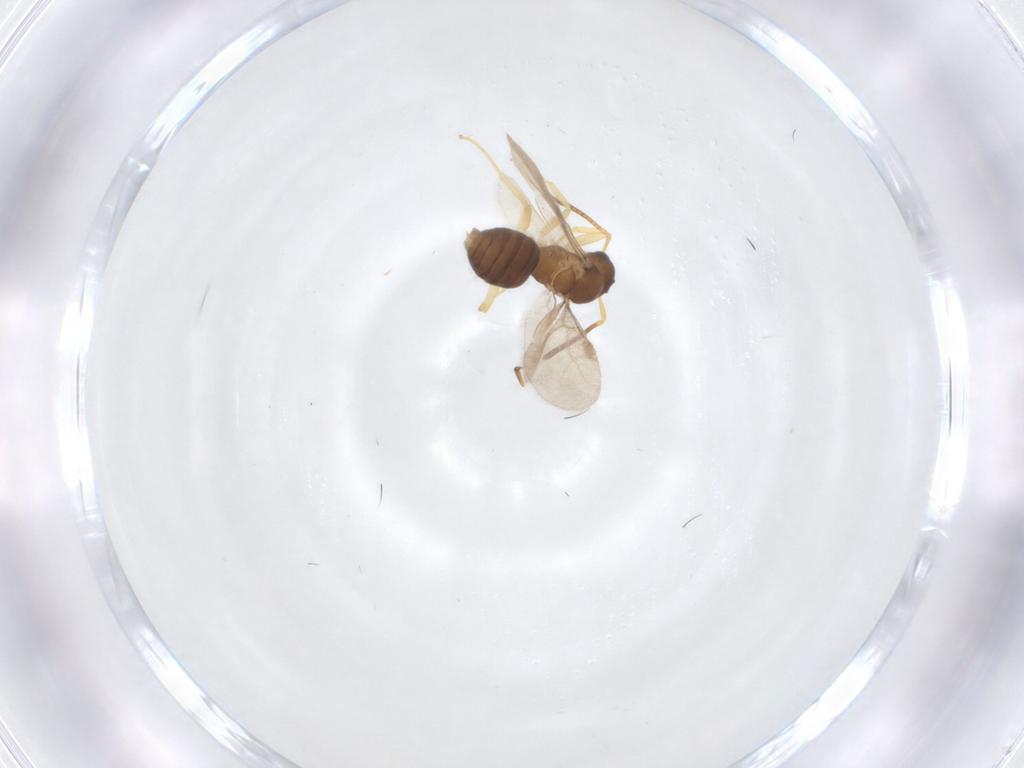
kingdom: Animalia
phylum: Arthropoda
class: Insecta
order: Hymenoptera
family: Formicidae
